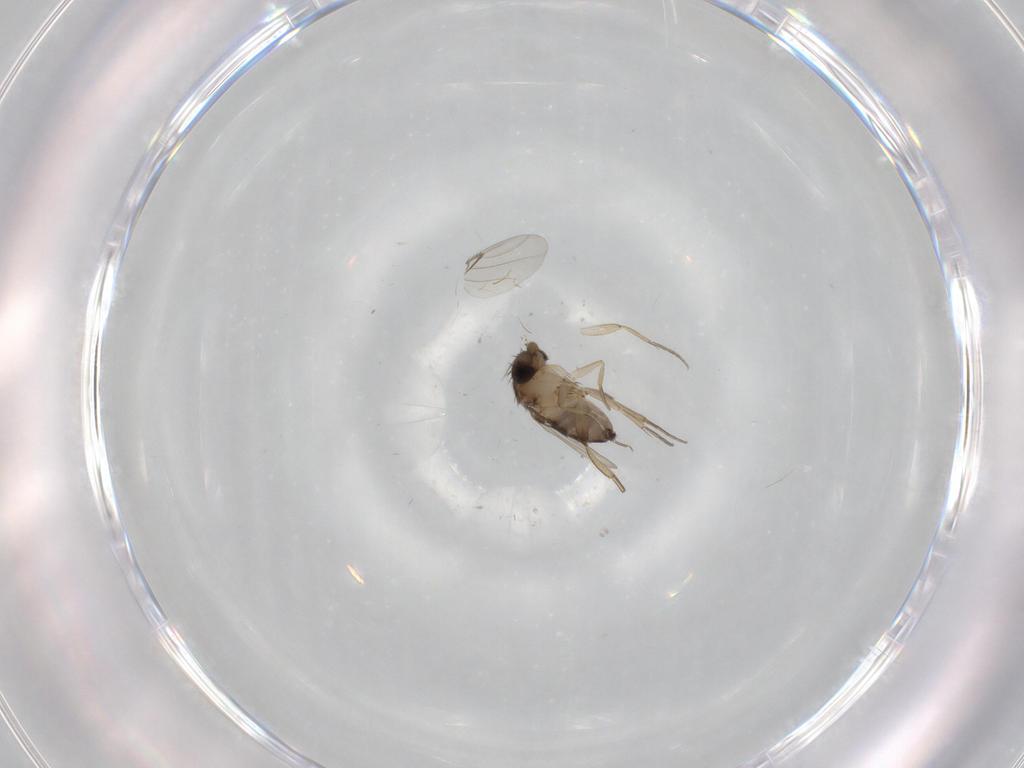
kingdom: Animalia
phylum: Arthropoda
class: Insecta
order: Diptera
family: Phoridae
